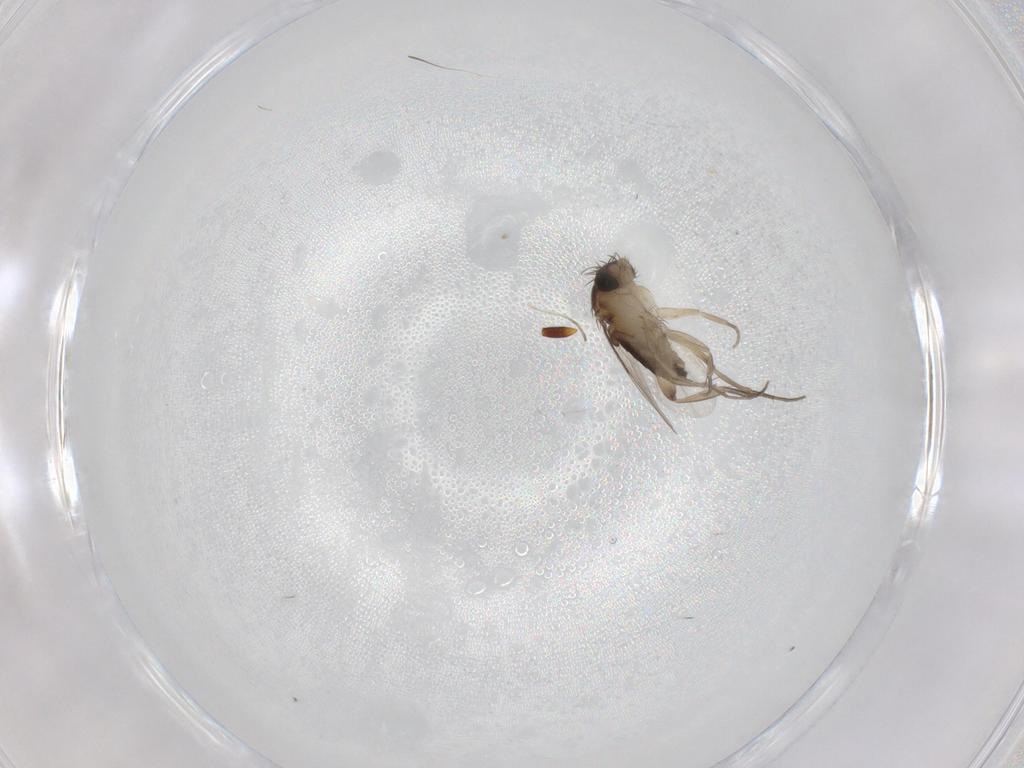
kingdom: Animalia
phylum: Arthropoda
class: Insecta
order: Diptera
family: Phoridae
